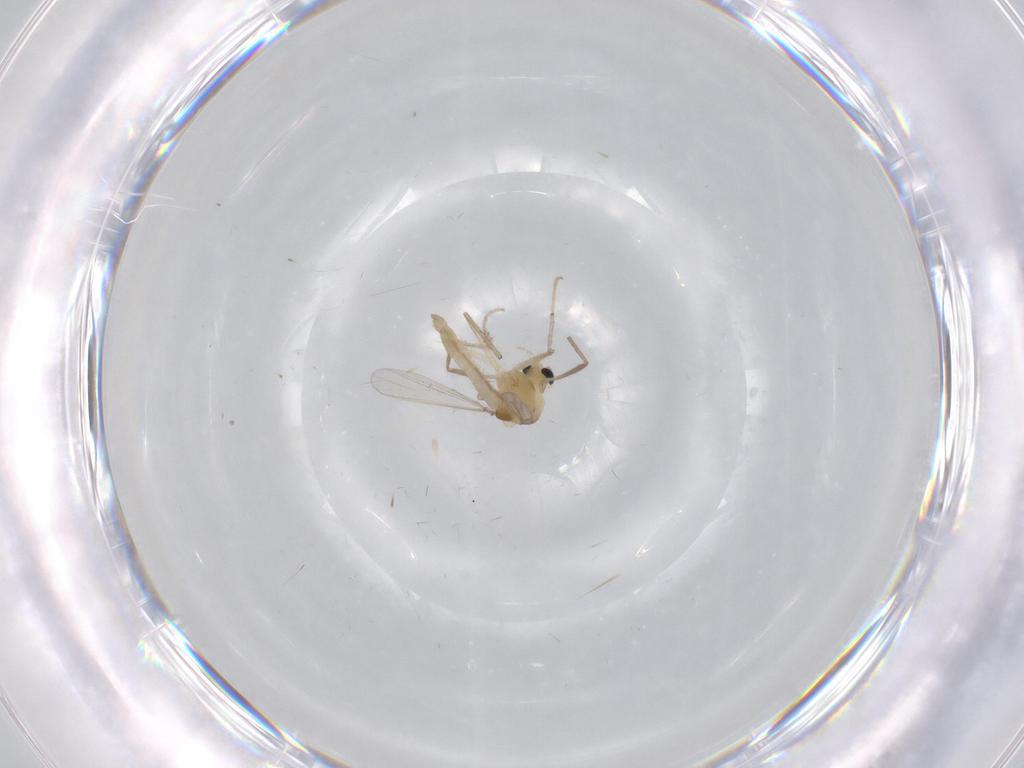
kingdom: Animalia
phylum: Arthropoda
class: Insecta
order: Diptera
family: Chironomidae
